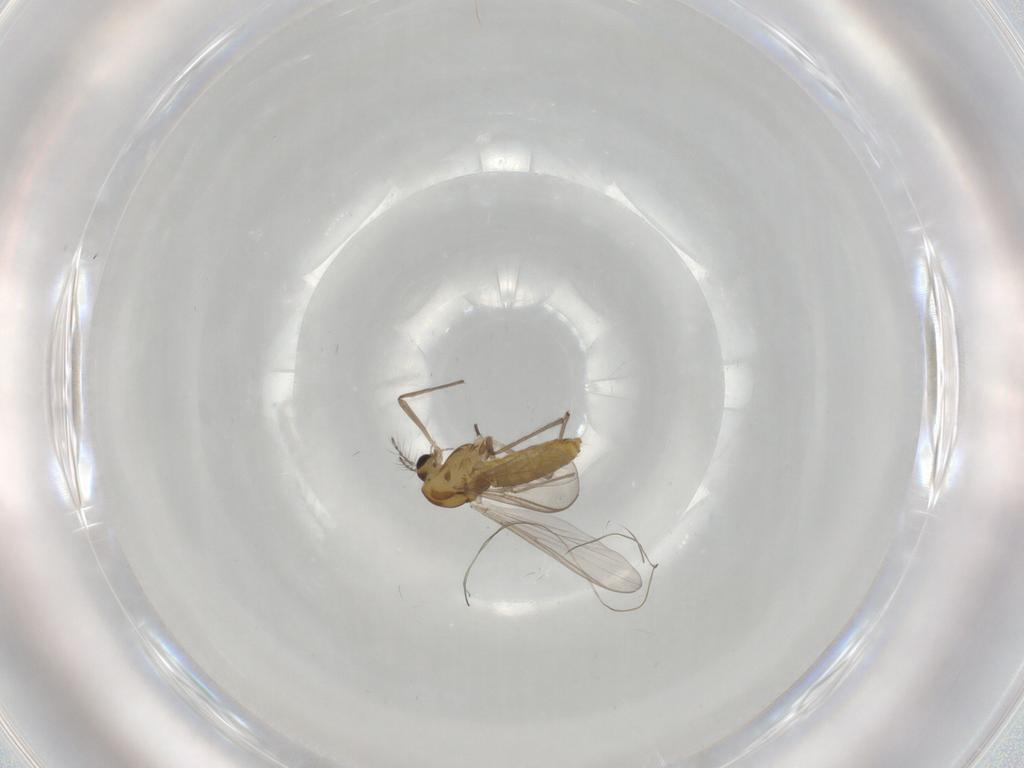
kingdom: Animalia
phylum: Arthropoda
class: Insecta
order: Diptera
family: Chironomidae
